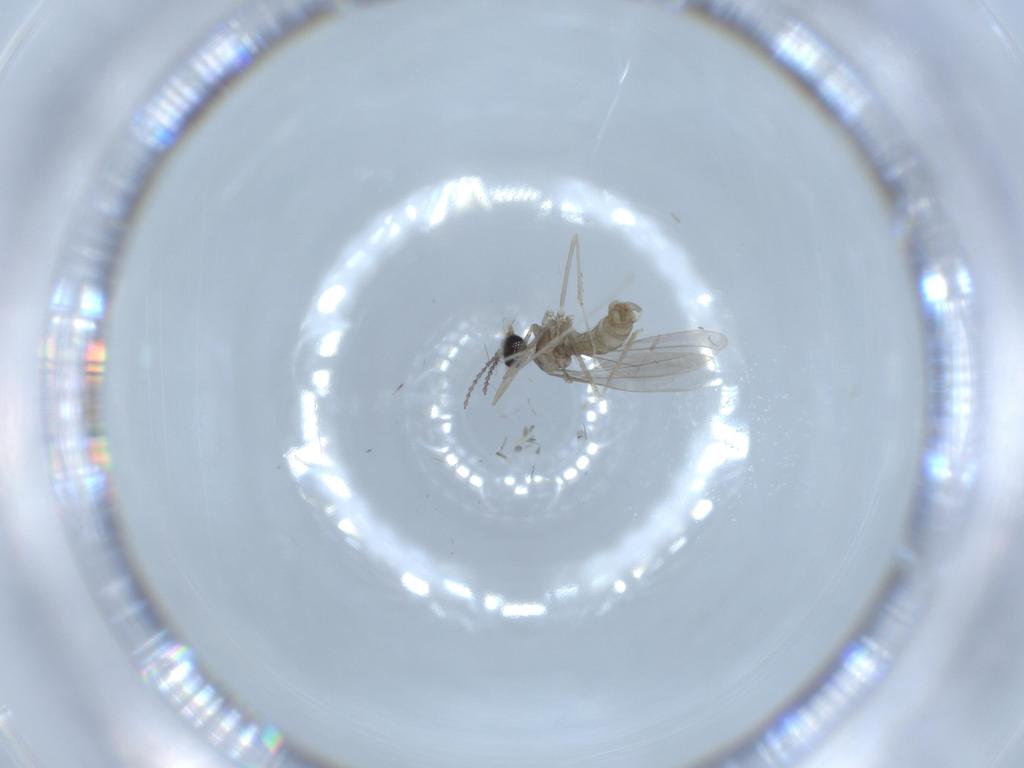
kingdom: Animalia
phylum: Arthropoda
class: Insecta
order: Diptera
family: Cecidomyiidae
